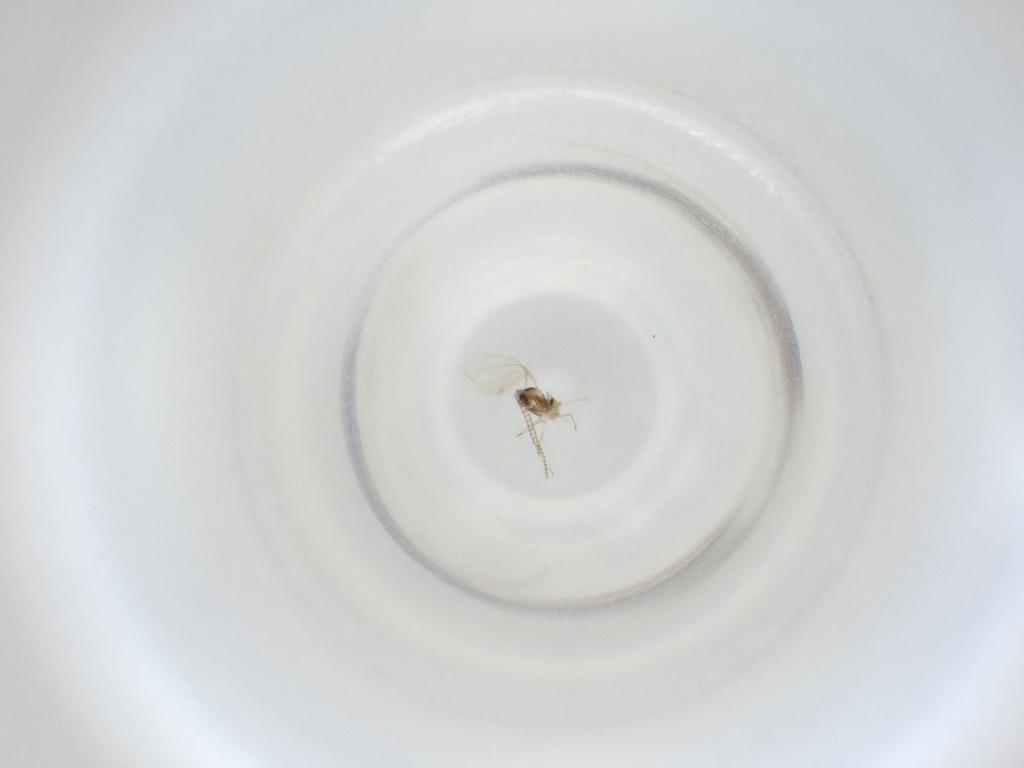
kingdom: Animalia
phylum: Arthropoda
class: Insecta
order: Diptera
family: Cecidomyiidae
